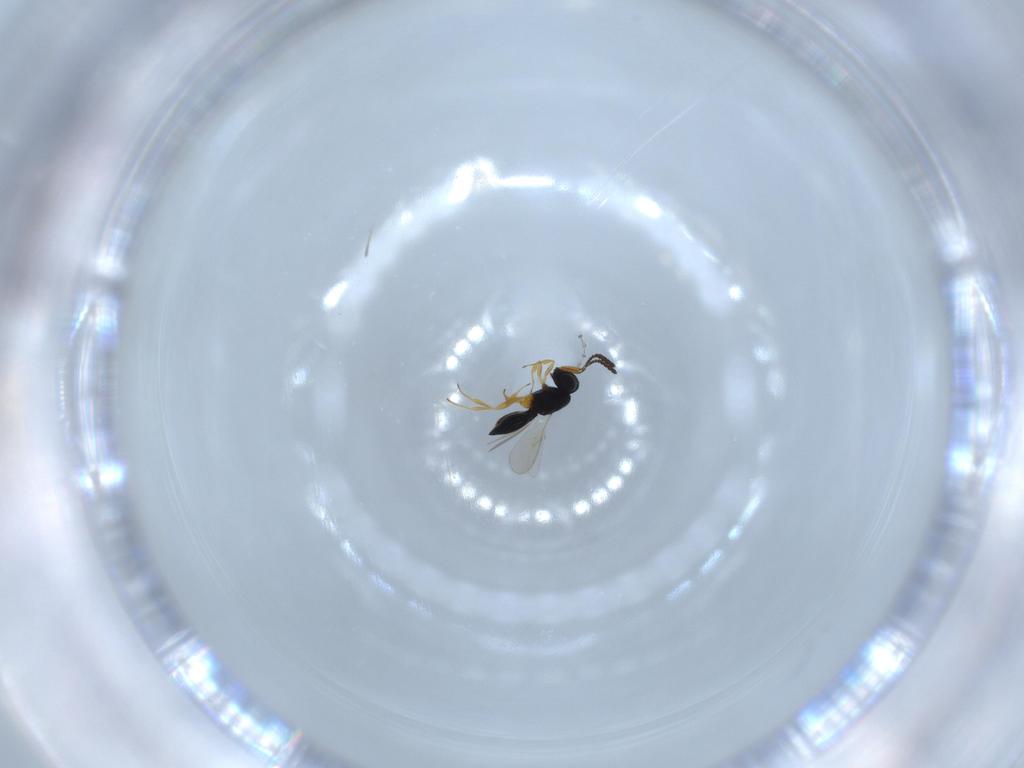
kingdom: Animalia
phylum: Arthropoda
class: Insecta
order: Hymenoptera
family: Scelionidae
